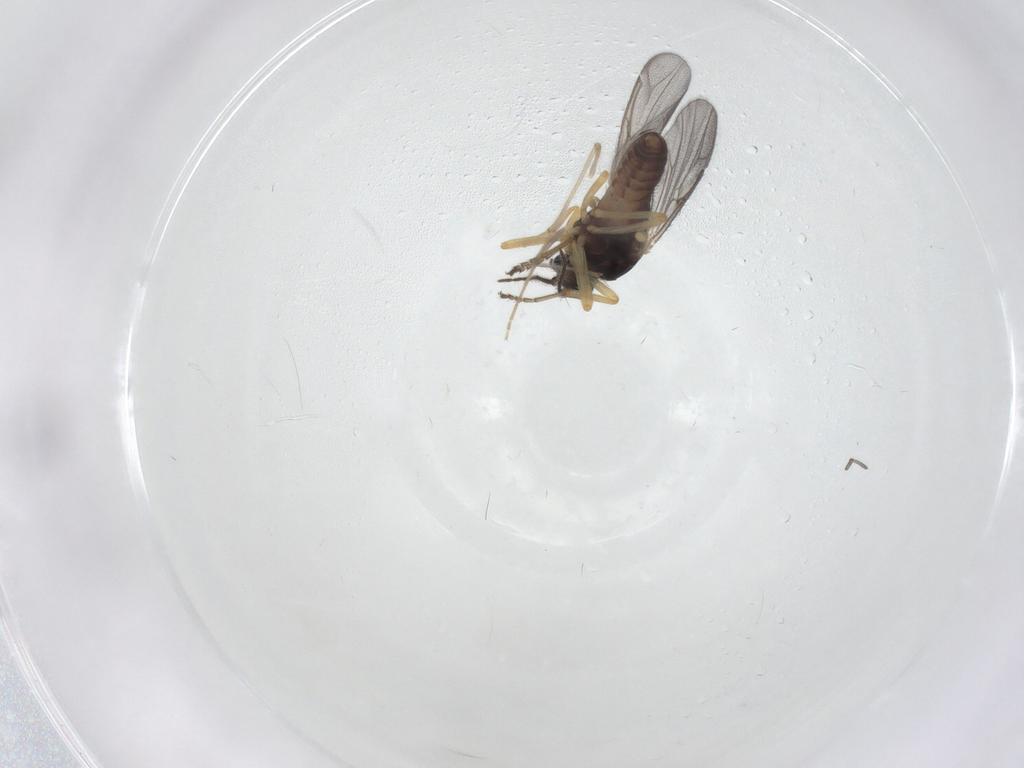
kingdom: Animalia
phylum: Arthropoda
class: Insecta
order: Diptera
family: Ceratopogonidae
